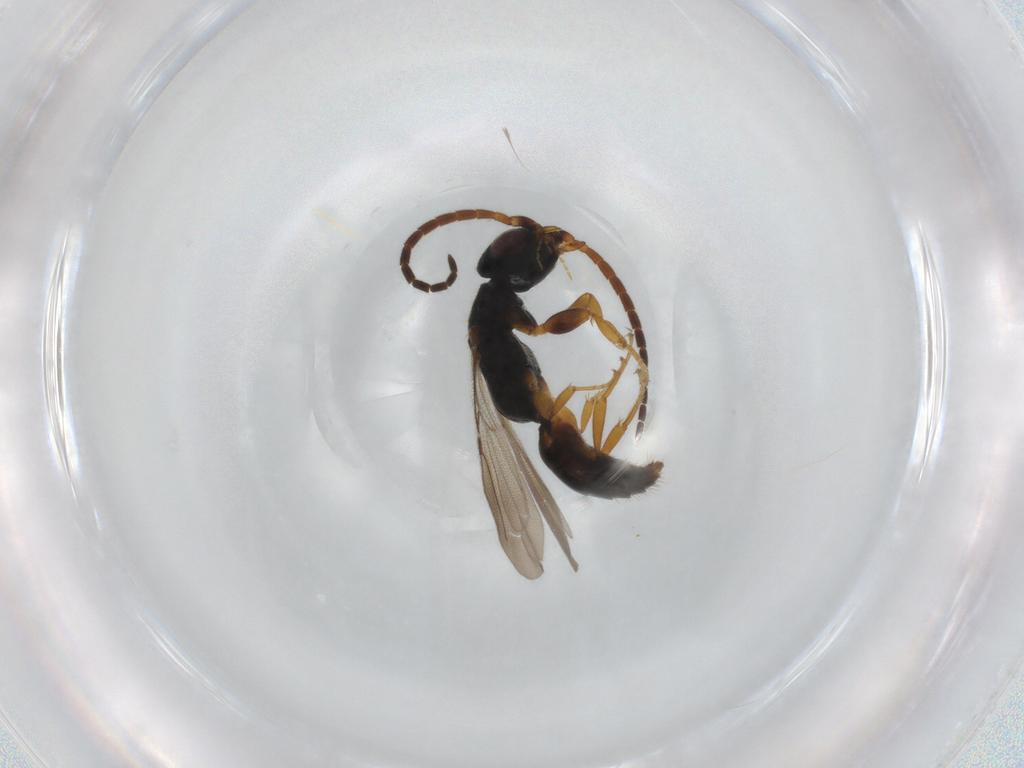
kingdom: Animalia
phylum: Arthropoda
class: Insecta
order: Hymenoptera
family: Bethylidae
